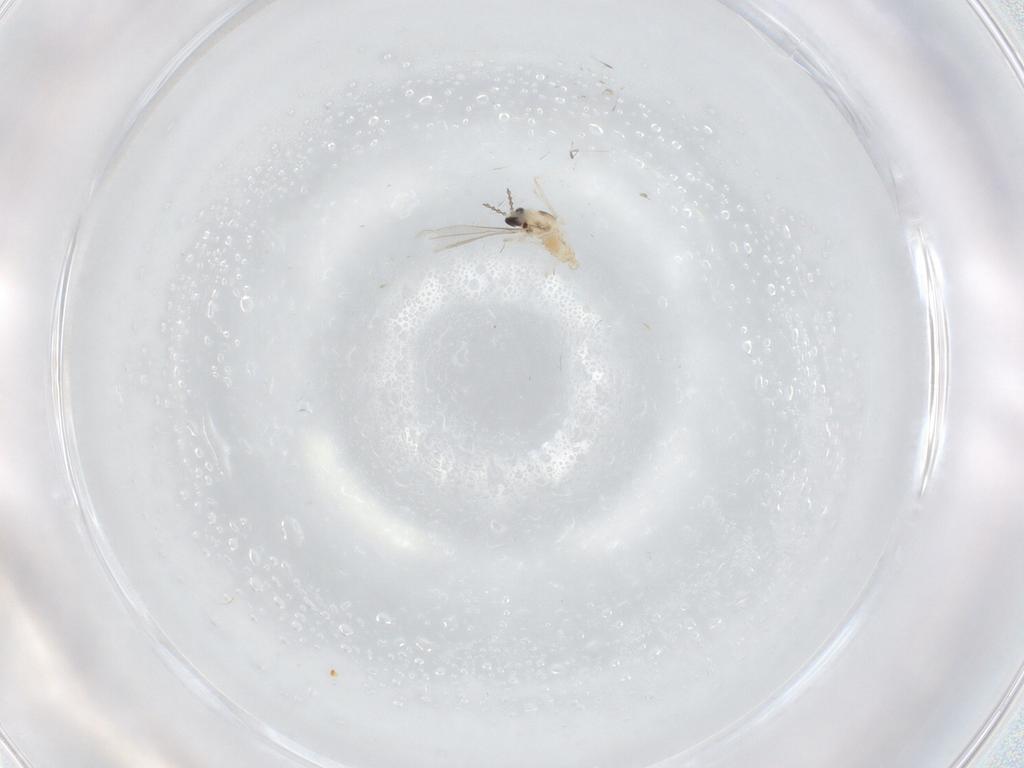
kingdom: Animalia
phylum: Arthropoda
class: Insecta
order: Diptera
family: Cecidomyiidae
